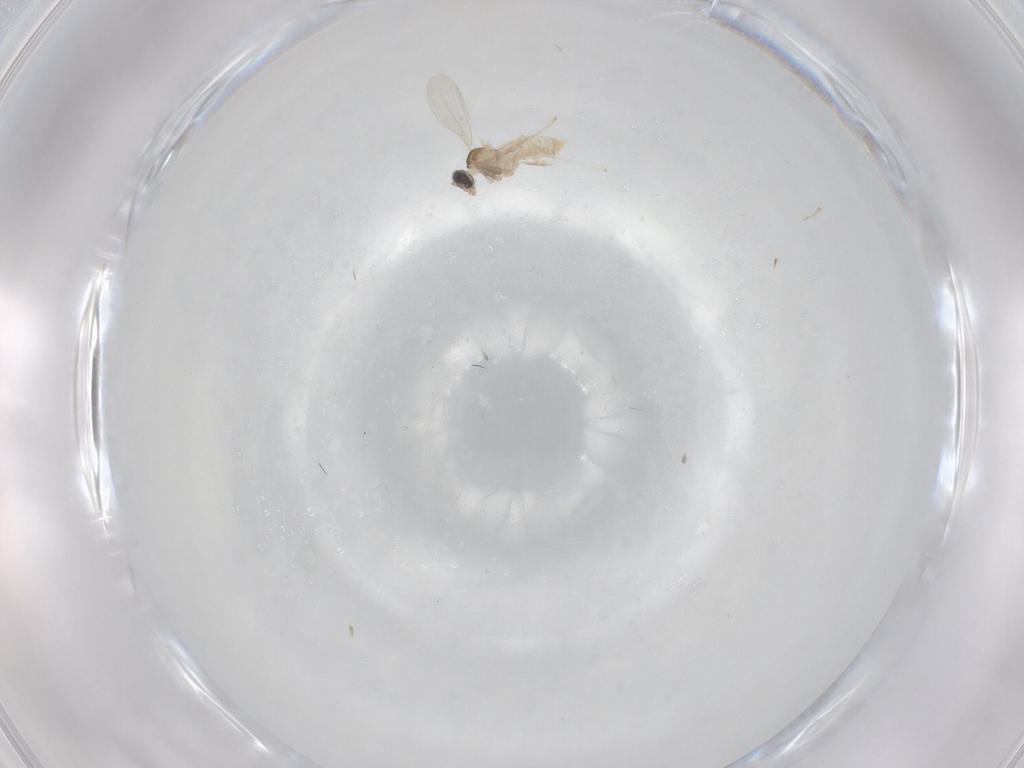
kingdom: Animalia
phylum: Arthropoda
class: Insecta
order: Diptera
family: Cecidomyiidae
